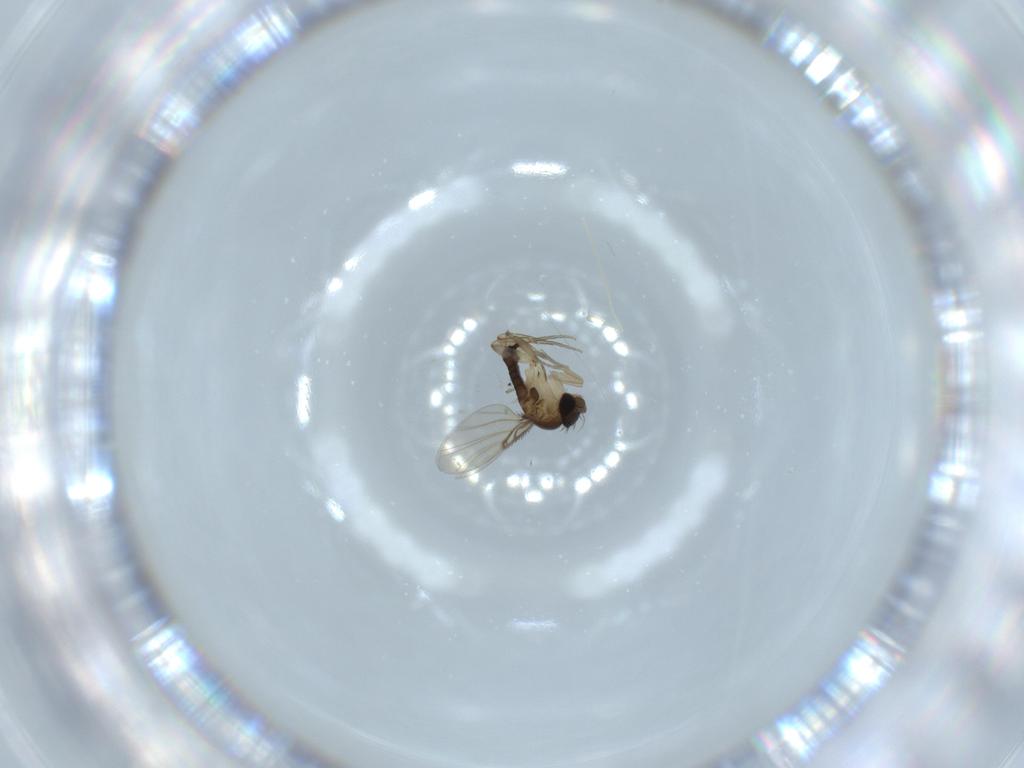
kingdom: Animalia
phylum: Arthropoda
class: Insecta
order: Diptera
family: Phoridae
